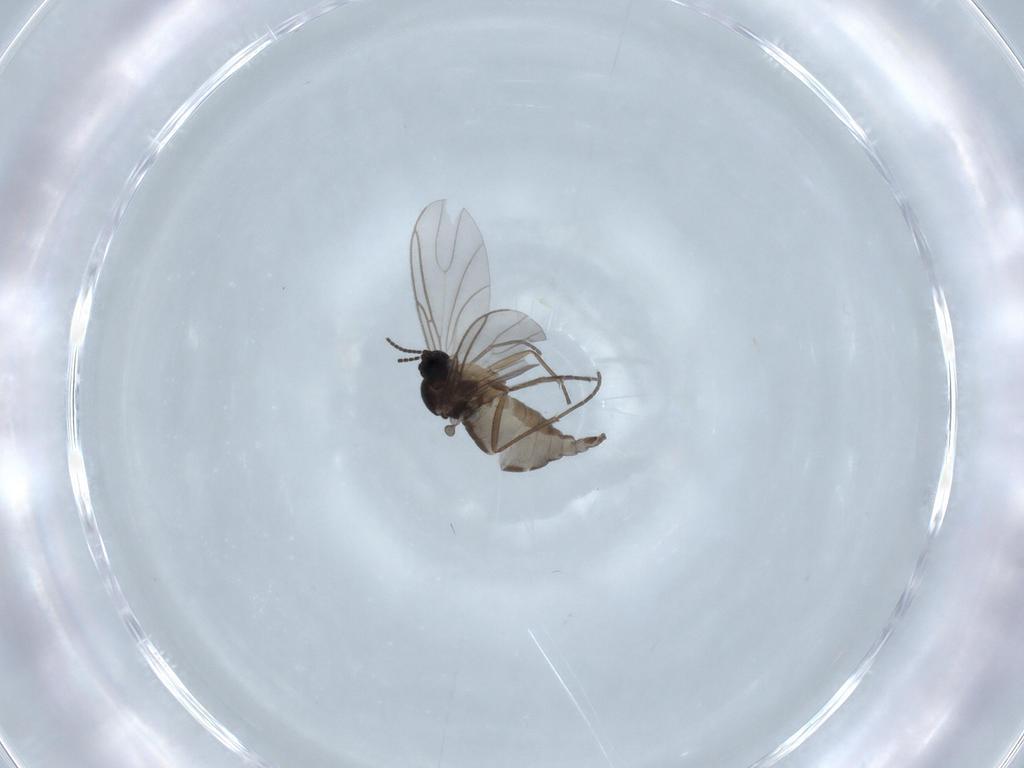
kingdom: Animalia
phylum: Arthropoda
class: Insecta
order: Diptera
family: Sciaridae
